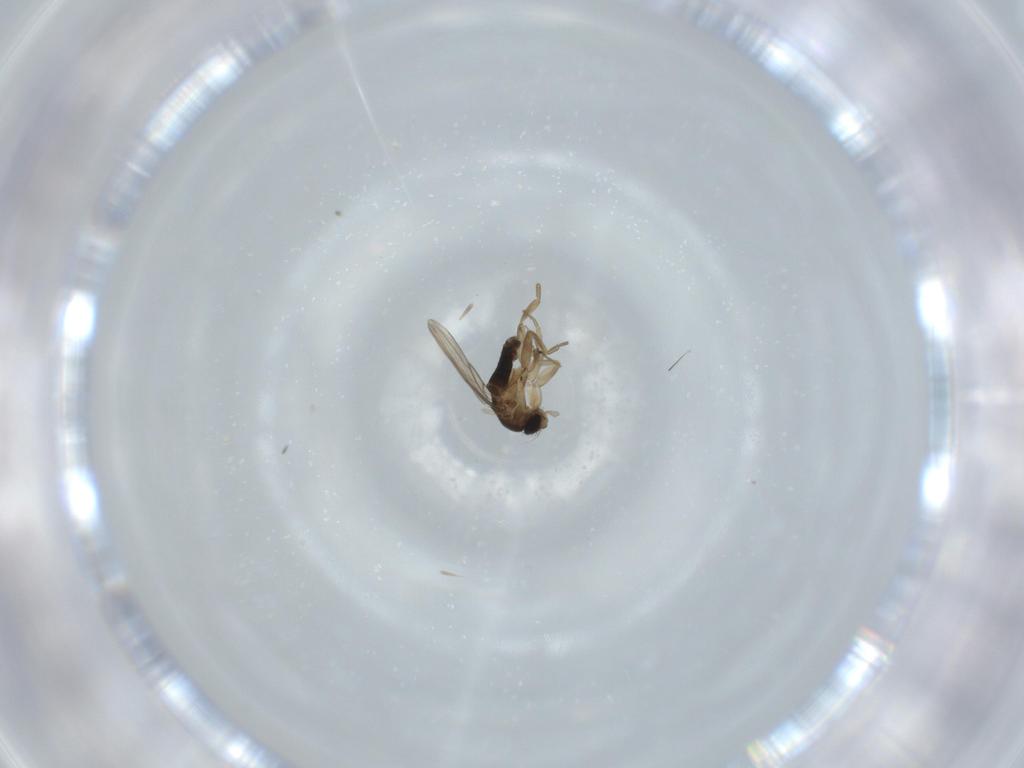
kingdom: Animalia
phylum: Arthropoda
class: Insecta
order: Diptera
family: Phoridae
